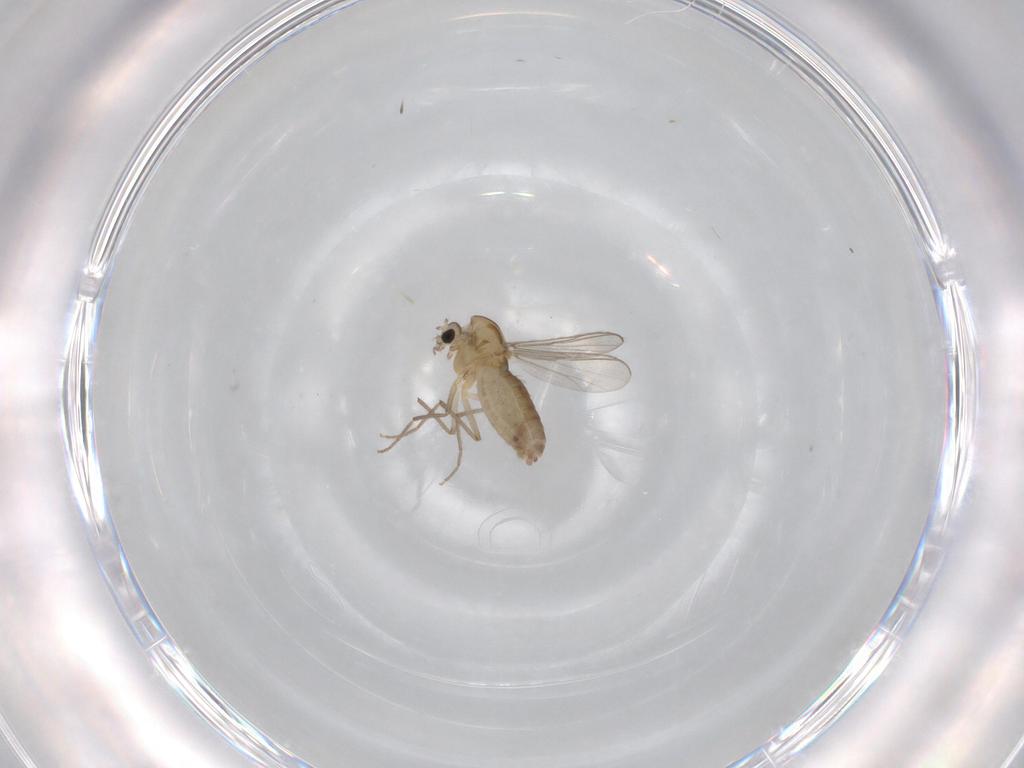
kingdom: Animalia
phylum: Arthropoda
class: Insecta
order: Diptera
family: Chironomidae
